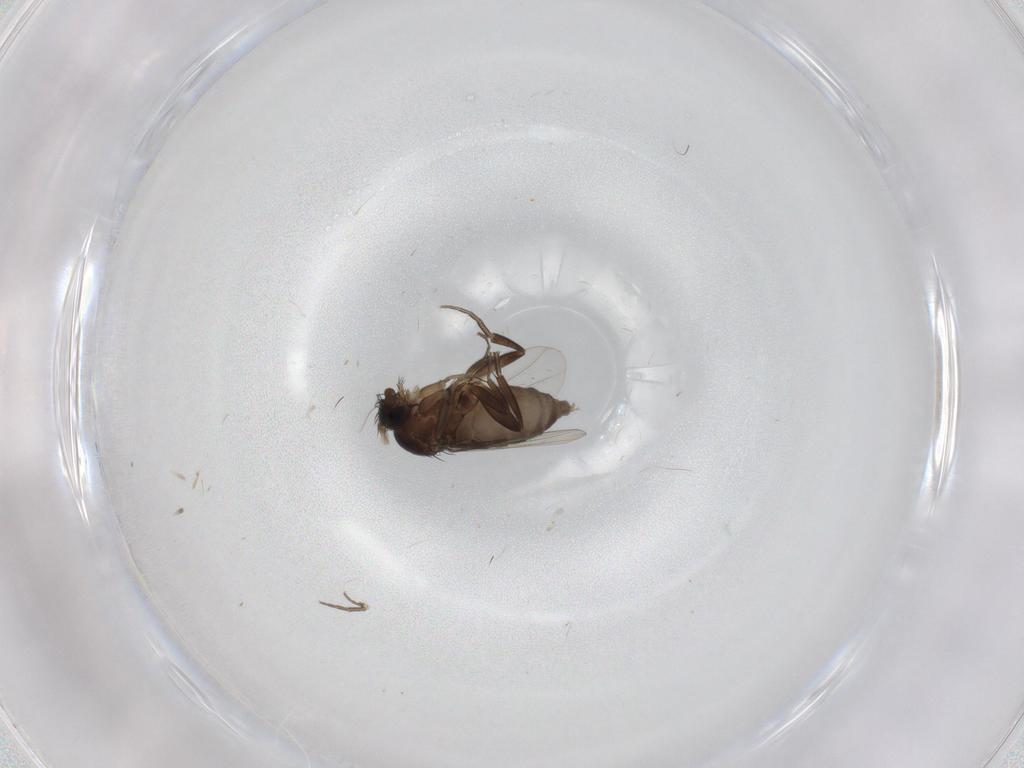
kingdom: Animalia
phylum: Arthropoda
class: Insecta
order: Diptera
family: Phoridae
